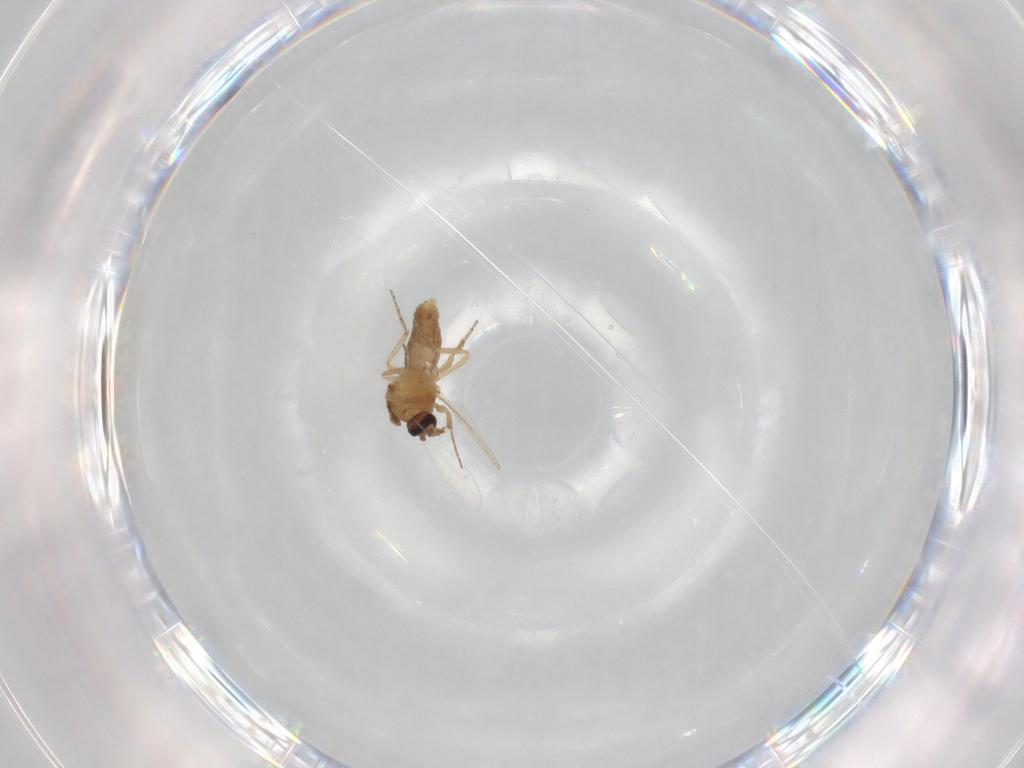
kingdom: Animalia
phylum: Arthropoda
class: Insecta
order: Diptera
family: Ceratopogonidae
